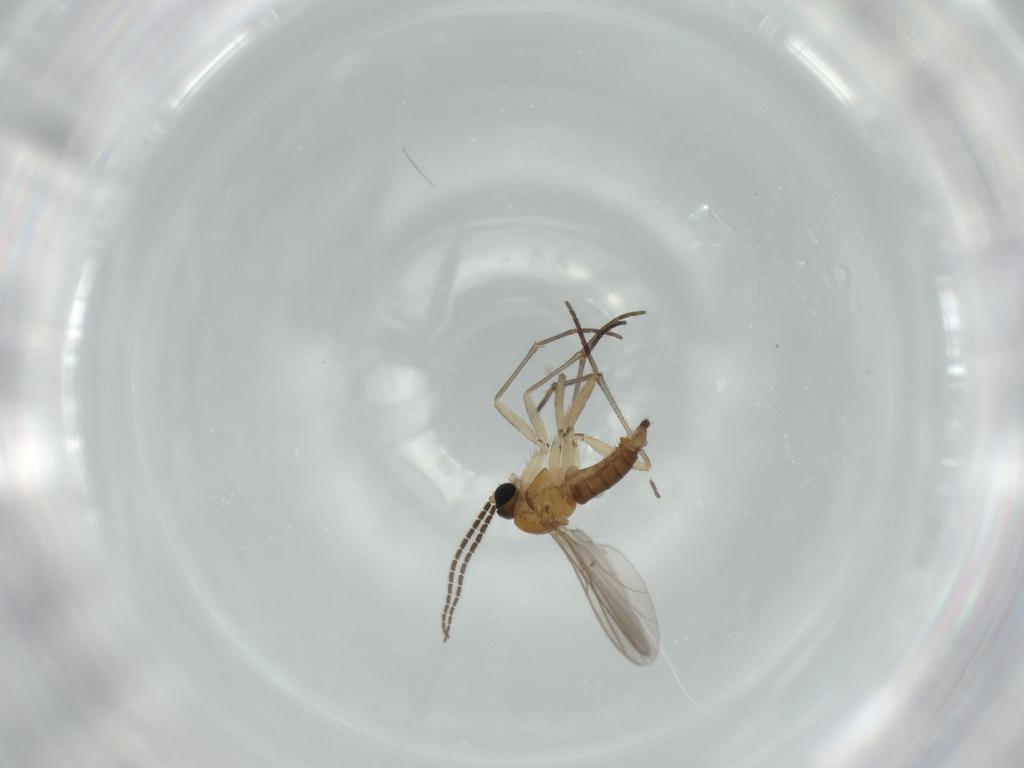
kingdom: Animalia
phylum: Arthropoda
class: Insecta
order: Diptera
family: Sciaridae
